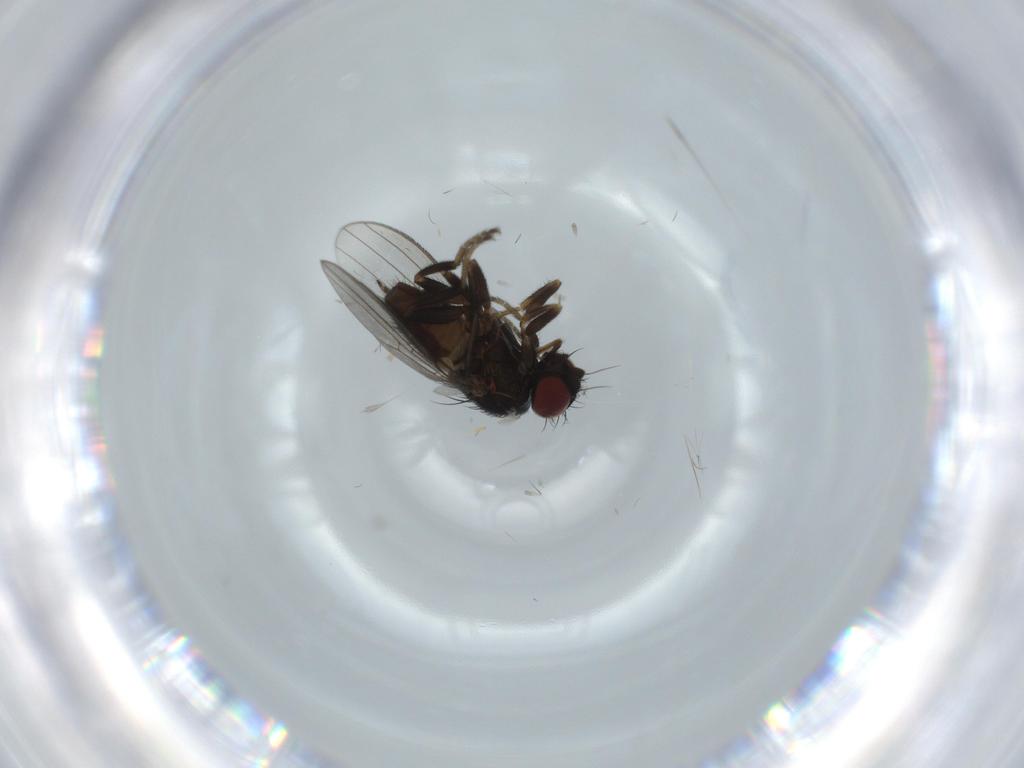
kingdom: Animalia
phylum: Arthropoda
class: Insecta
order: Diptera
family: Milichiidae
